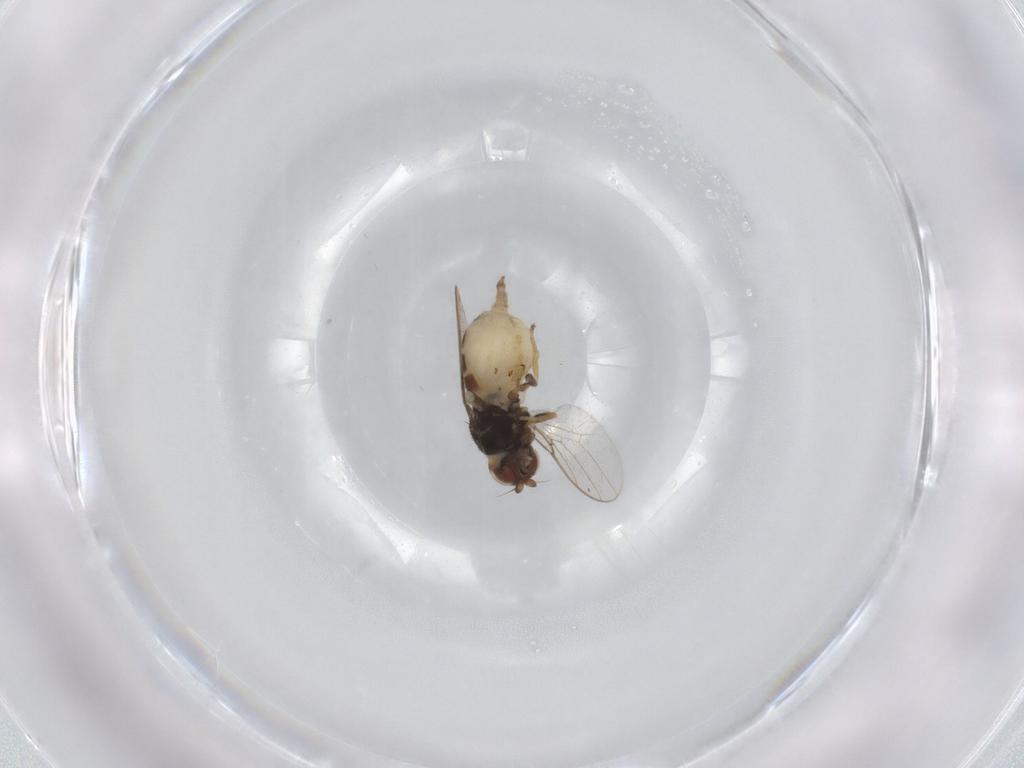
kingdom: Animalia
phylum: Arthropoda
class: Insecta
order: Diptera
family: Chloropidae
